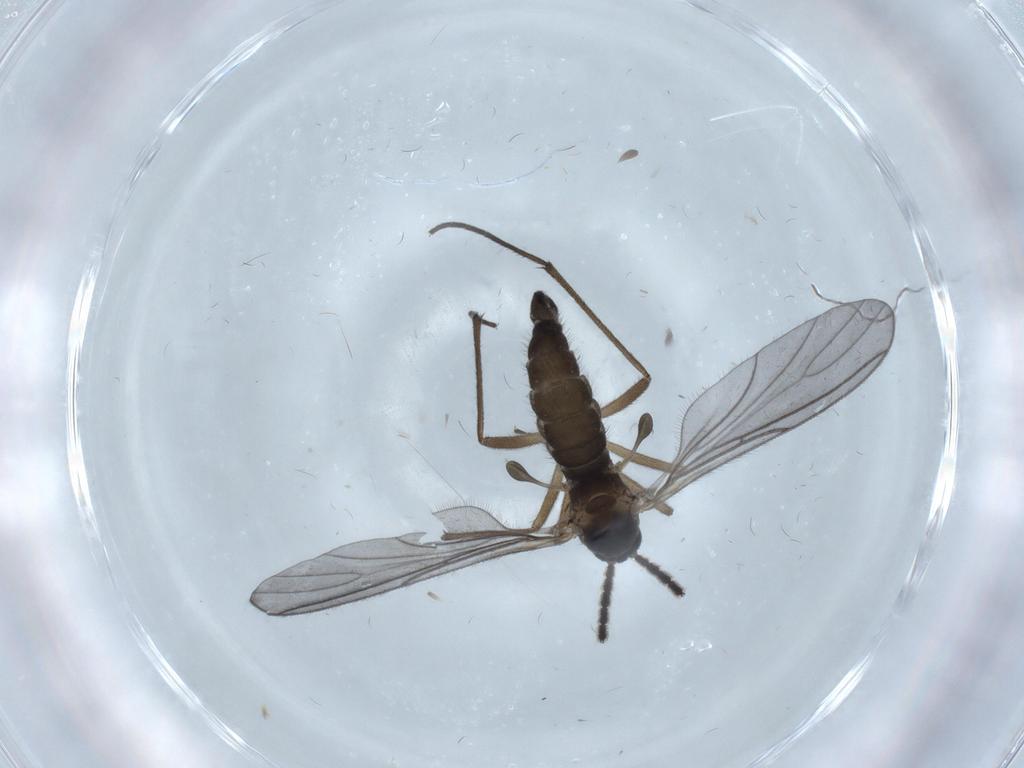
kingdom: Animalia
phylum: Arthropoda
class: Insecta
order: Diptera
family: Sciaridae
